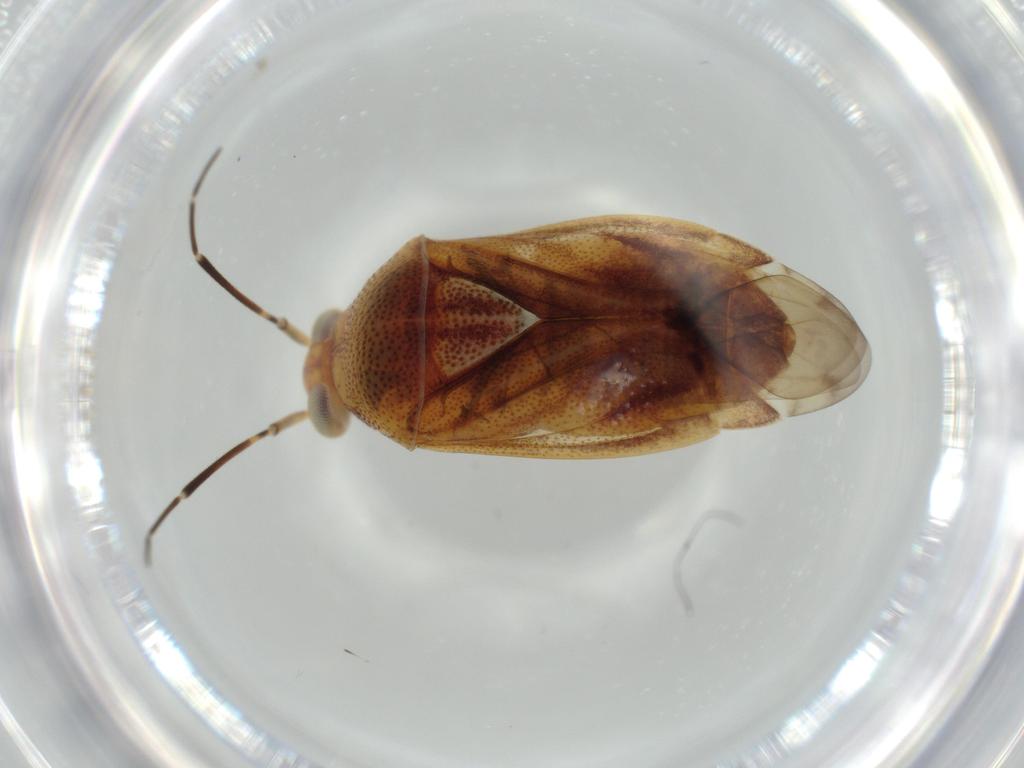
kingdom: Animalia
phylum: Arthropoda
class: Insecta
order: Hemiptera
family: Miridae
